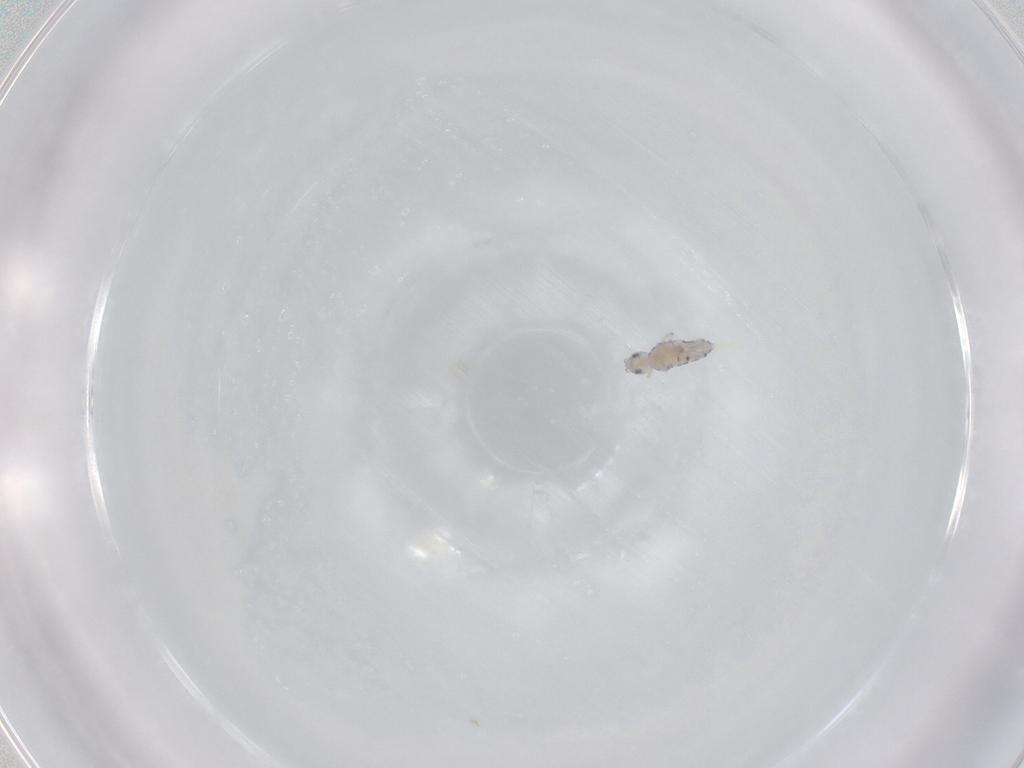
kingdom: Animalia
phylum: Arthropoda
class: Collembola
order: Entomobryomorpha
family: Entomobryidae
